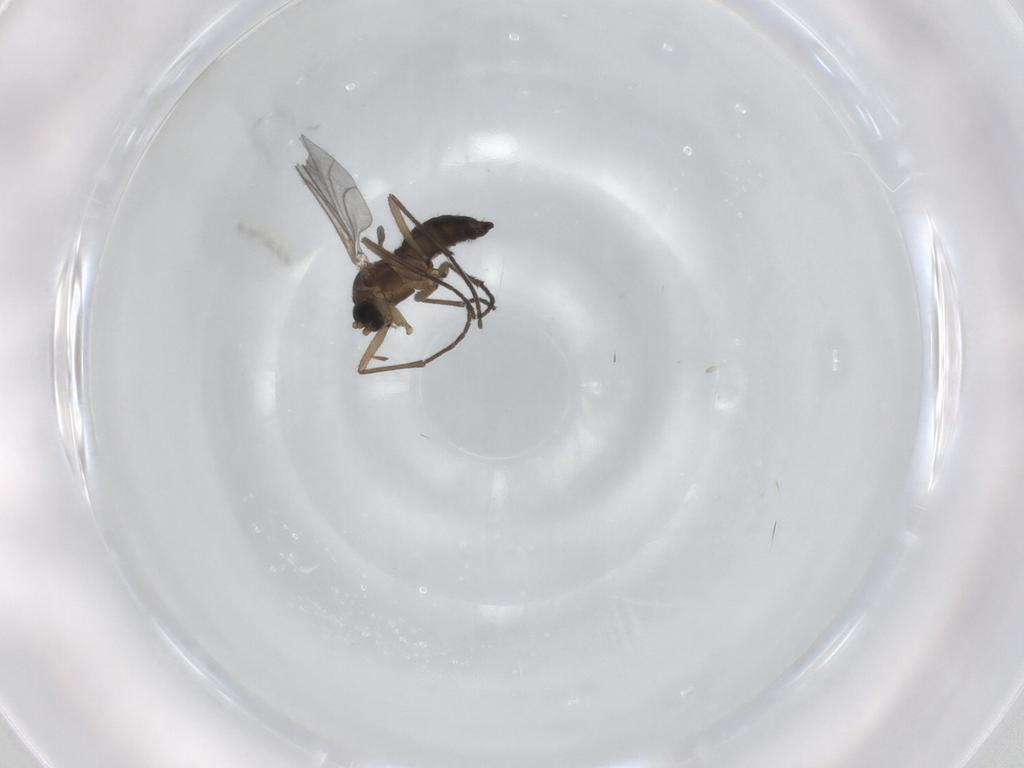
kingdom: Animalia
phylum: Arthropoda
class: Insecta
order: Diptera
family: Sciaridae
